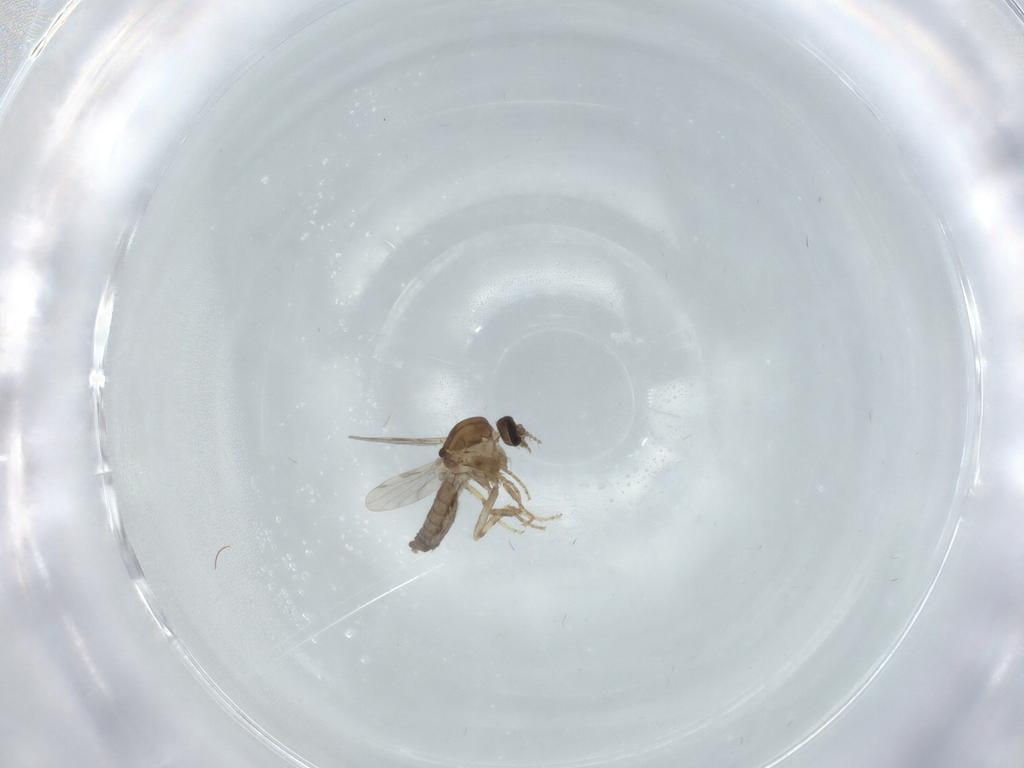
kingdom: Animalia
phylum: Arthropoda
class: Insecta
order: Diptera
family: Ceratopogonidae
